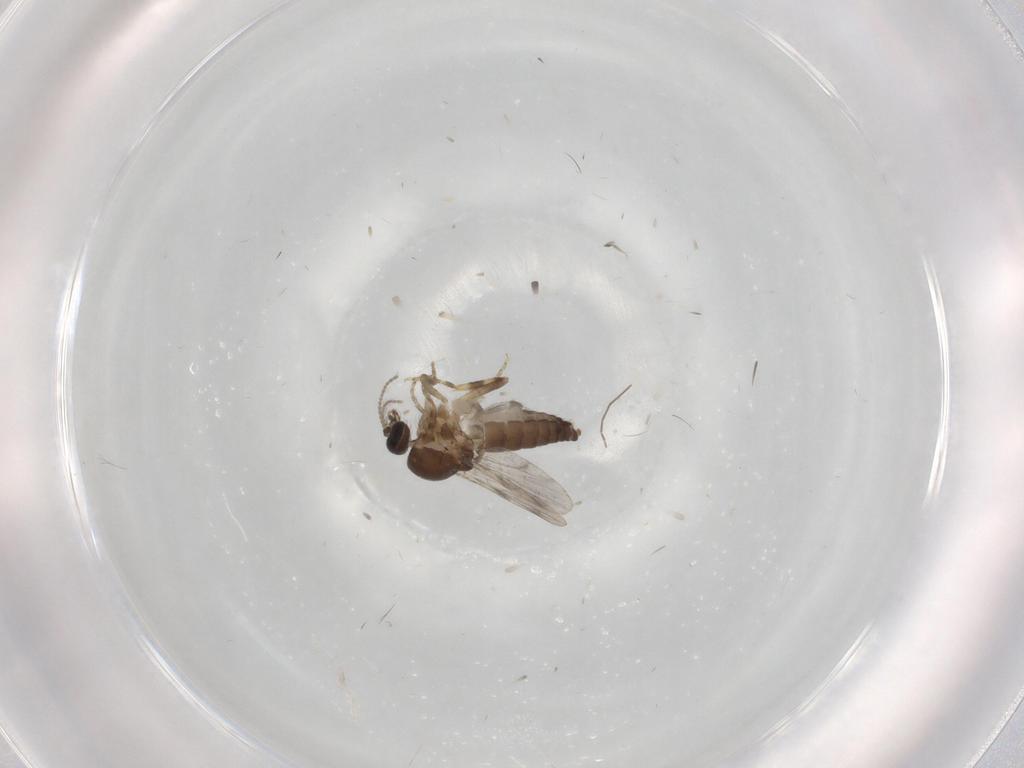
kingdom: Animalia
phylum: Arthropoda
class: Insecta
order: Diptera
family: Ceratopogonidae
